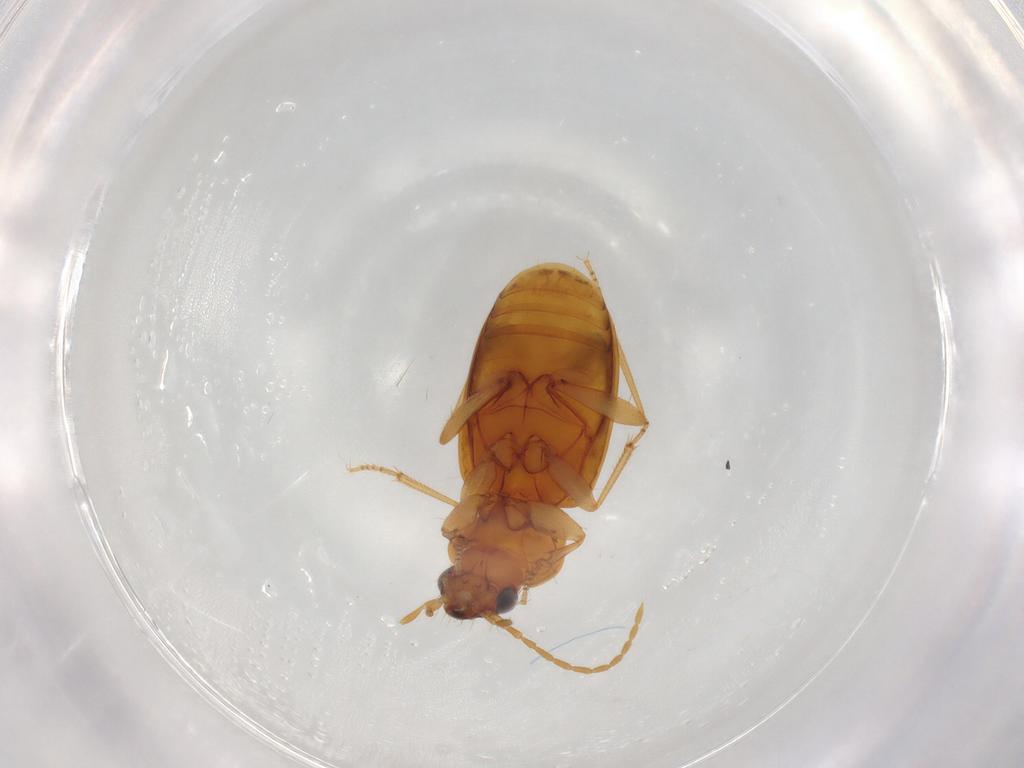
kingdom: Animalia
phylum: Arthropoda
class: Insecta
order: Coleoptera
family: Carabidae
